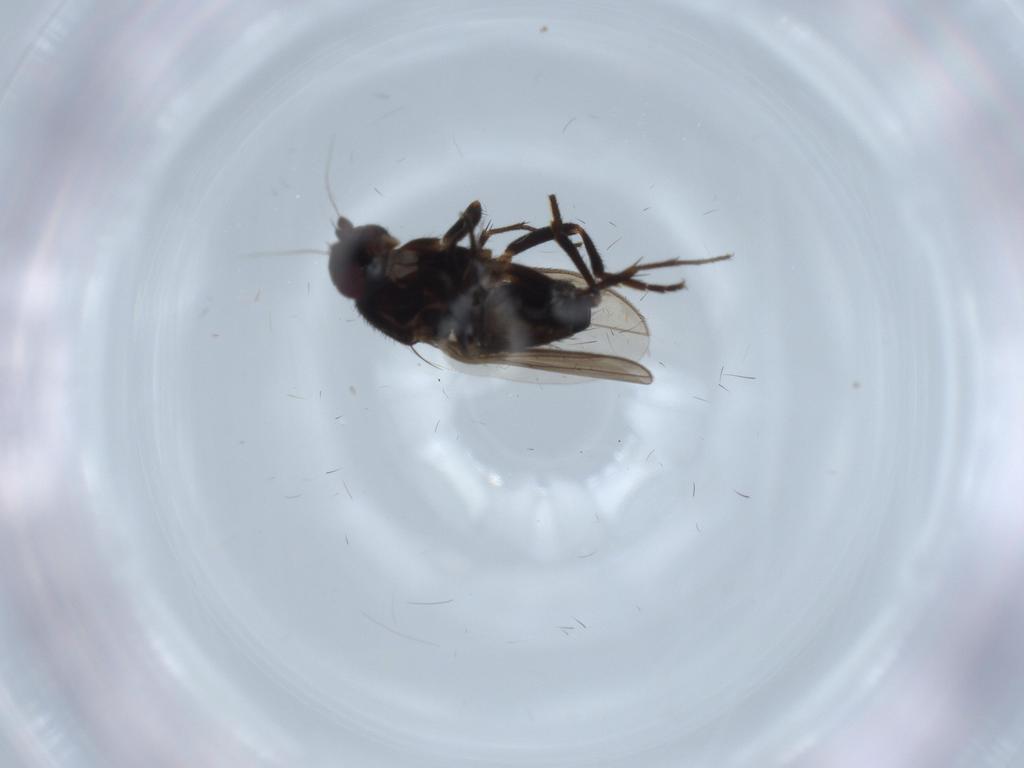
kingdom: Animalia
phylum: Arthropoda
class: Insecta
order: Diptera
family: Sphaeroceridae
